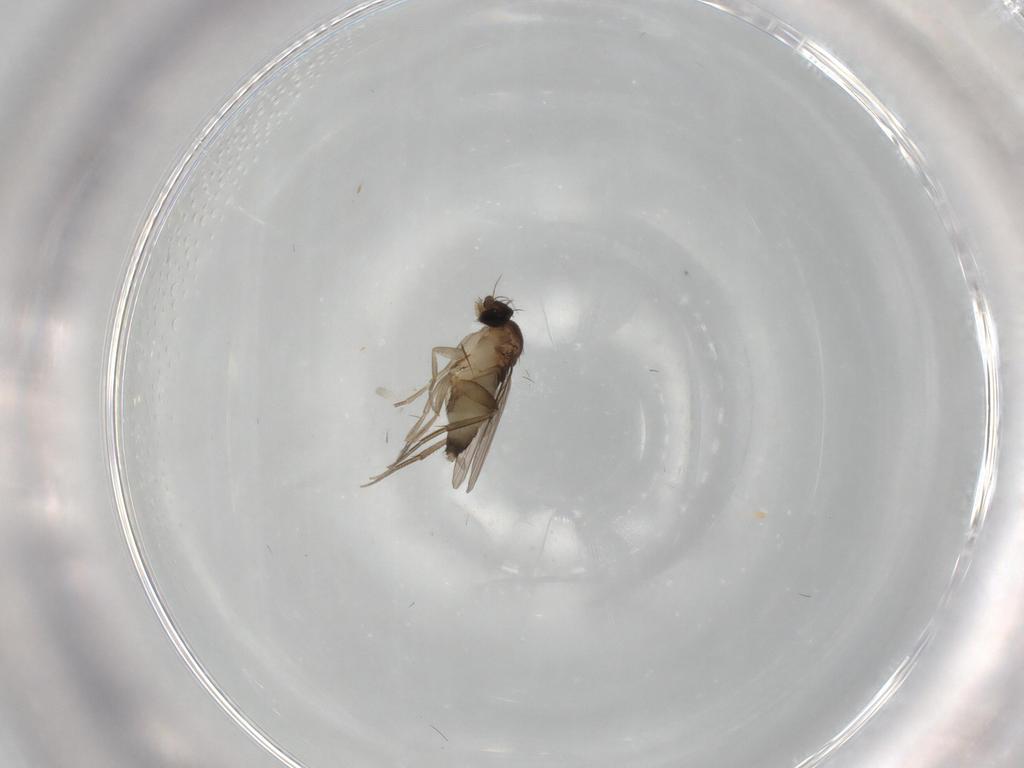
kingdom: Animalia
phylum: Arthropoda
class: Insecta
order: Diptera
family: Phoridae
